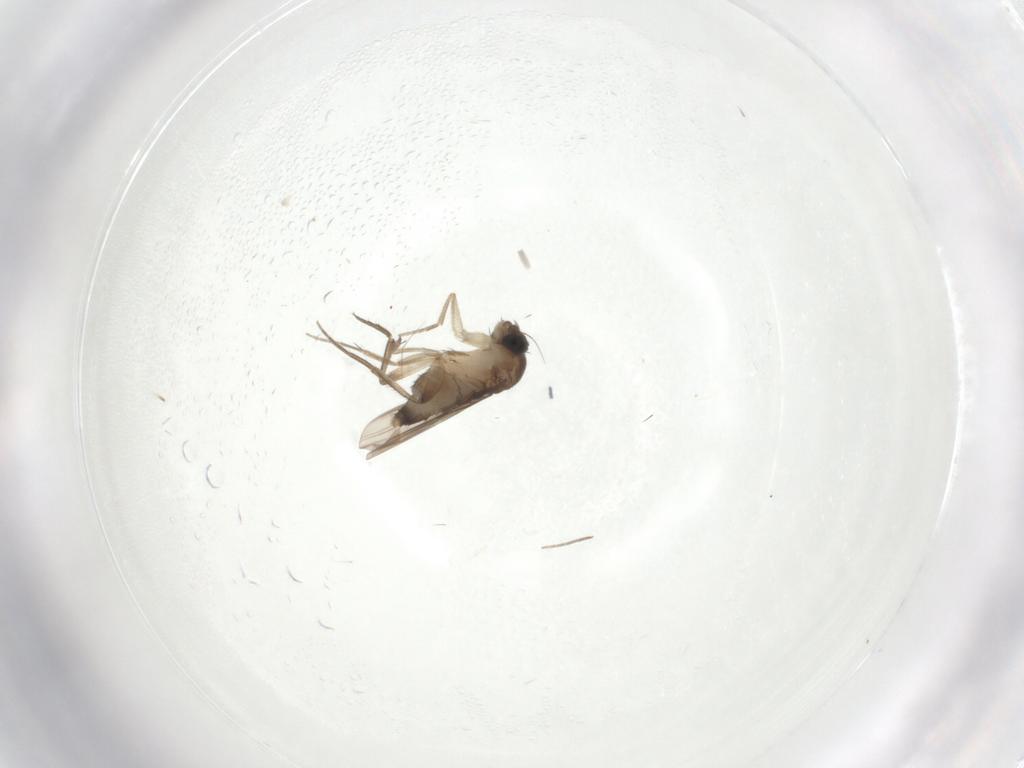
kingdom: Animalia
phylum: Arthropoda
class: Insecta
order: Diptera
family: Phoridae
